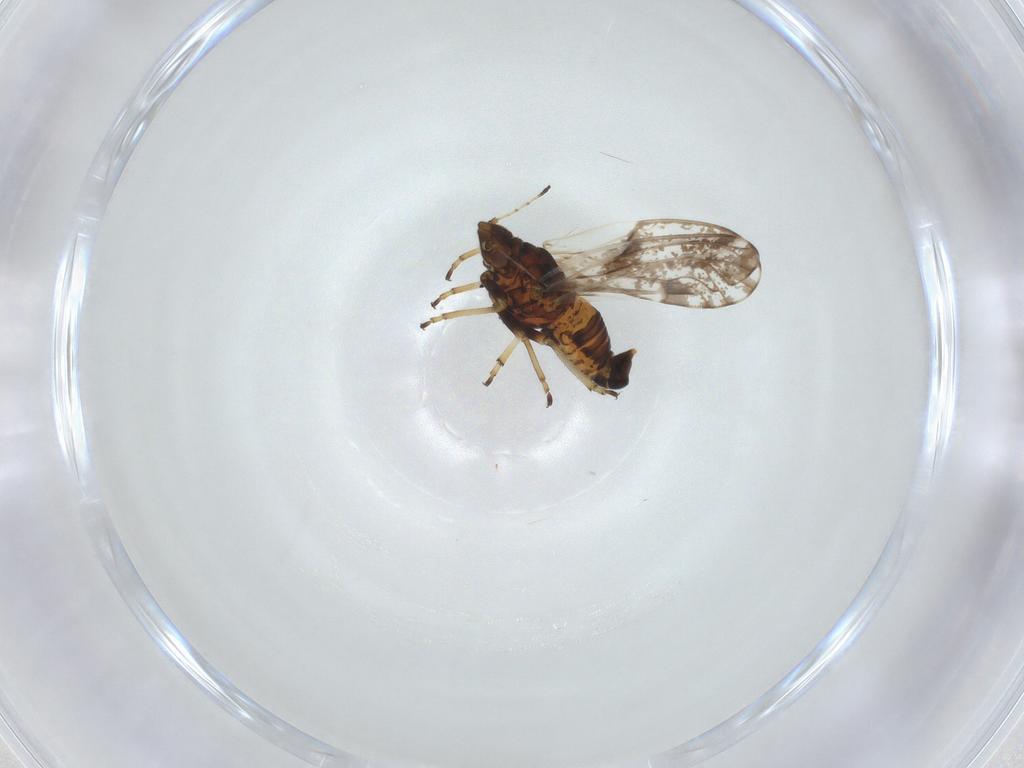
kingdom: Animalia
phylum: Arthropoda
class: Insecta
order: Hemiptera
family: Psylloidea_incertae_sedis
